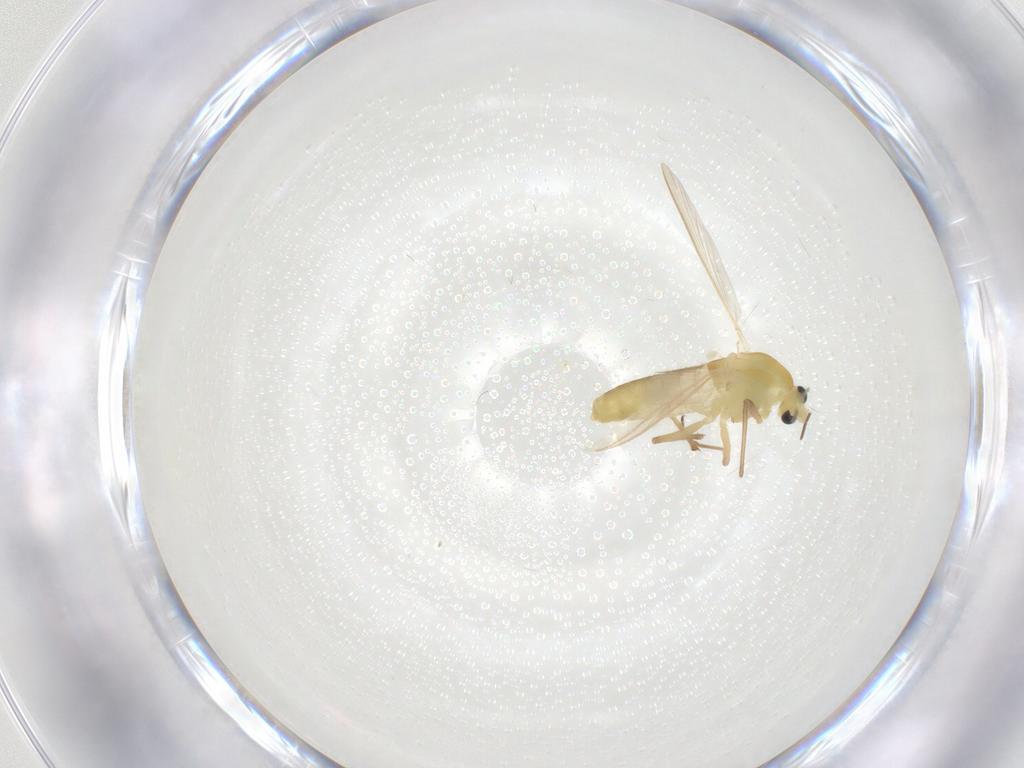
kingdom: Animalia
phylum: Arthropoda
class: Insecta
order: Diptera
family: Chironomidae
